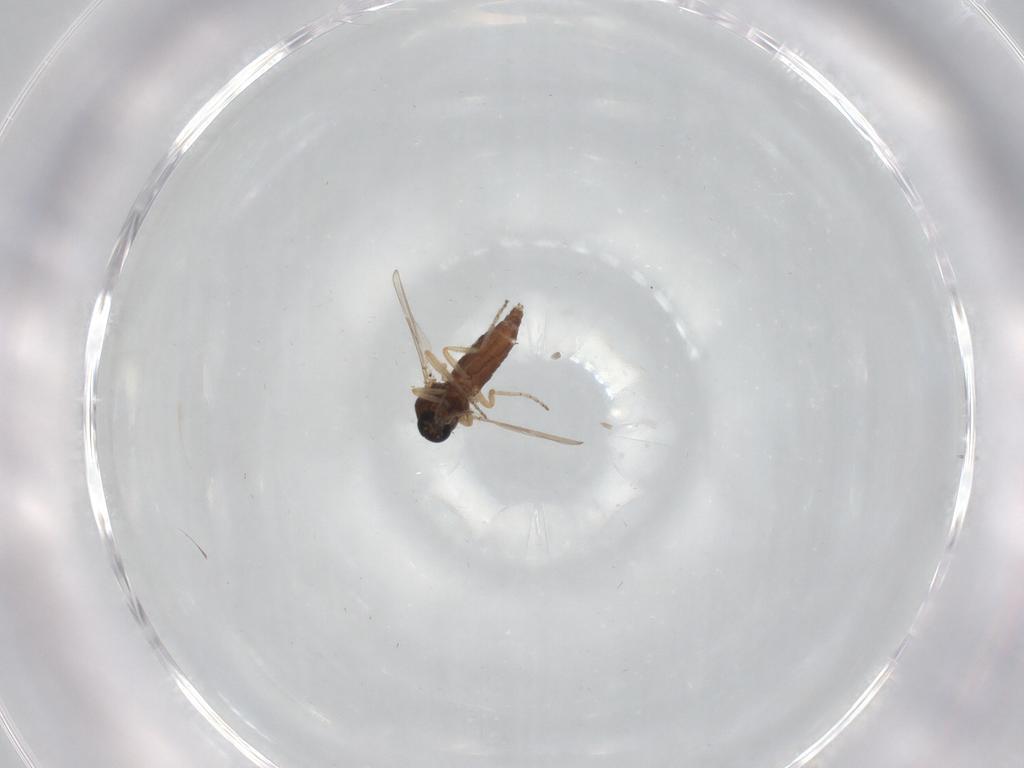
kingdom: Animalia
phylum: Arthropoda
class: Insecta
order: Diptera
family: Ceratopogonidae
